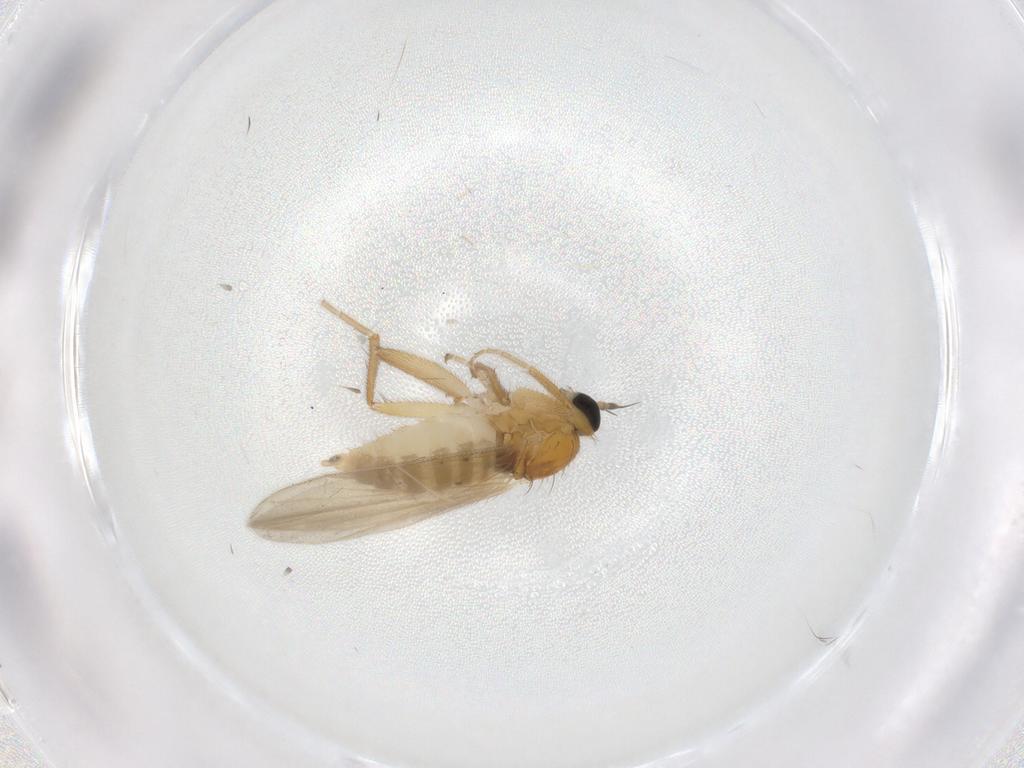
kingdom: Animalia
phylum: Arthropoda
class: Insecta
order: Diptera
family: Hybotidae
